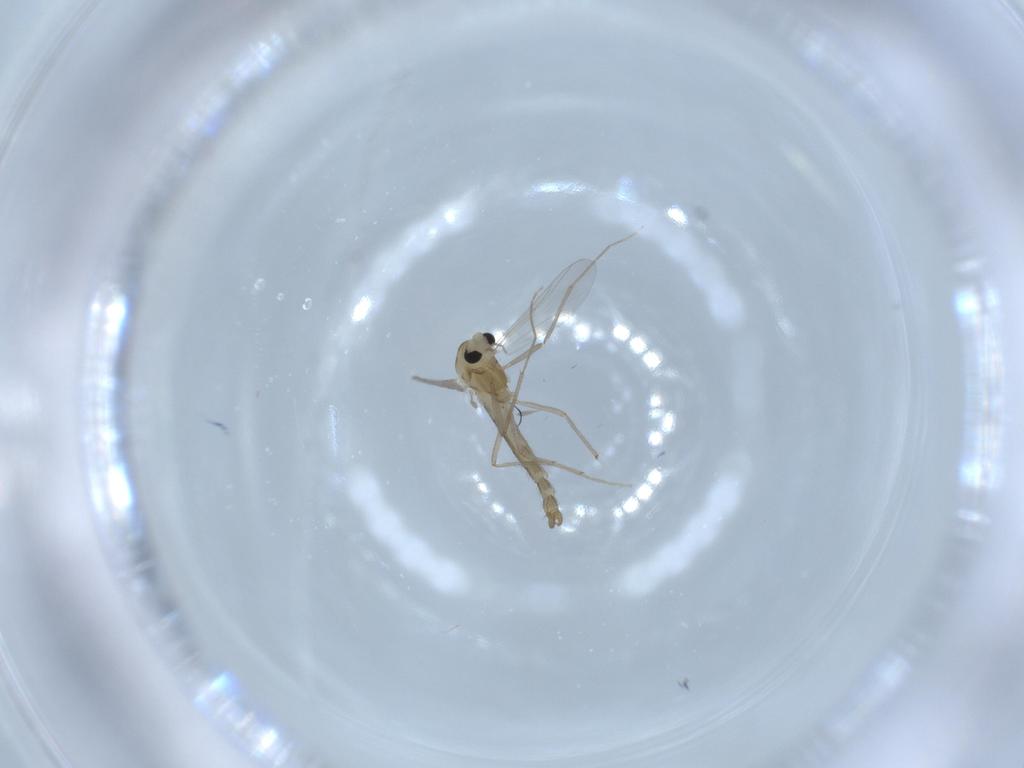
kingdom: Animalia
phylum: Arthropoda
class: Insecta
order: Diptera
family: Chironomidae
